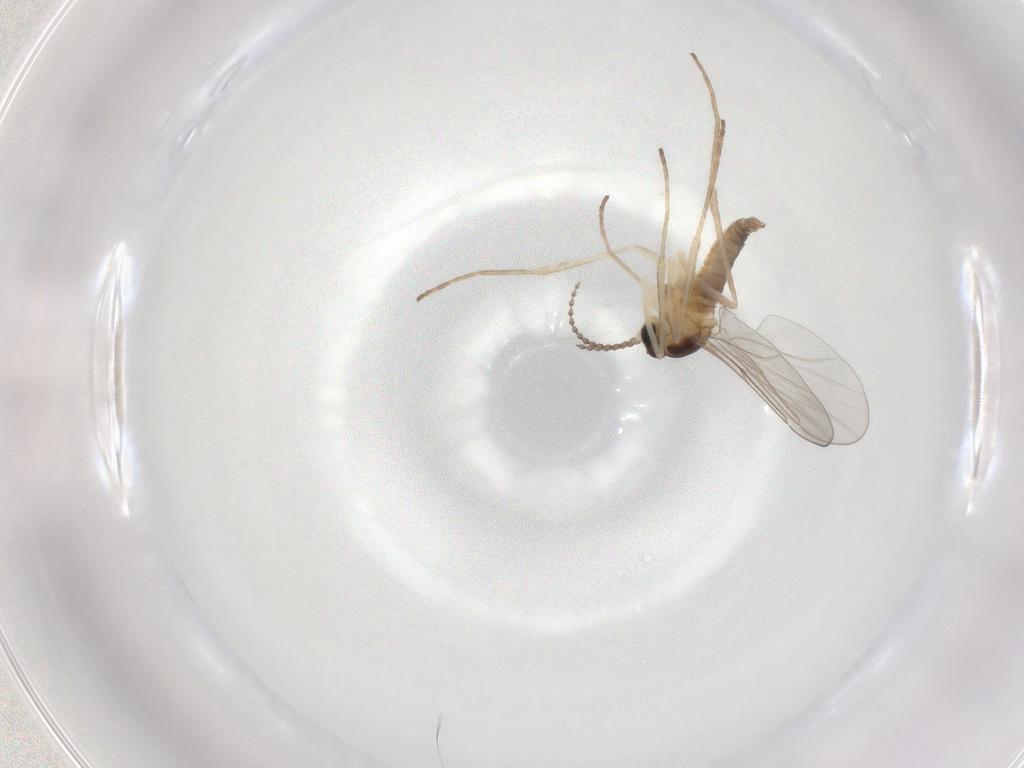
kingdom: Animalia
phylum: Arthropoda
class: Insecta
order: Diptera
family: Cecidomyiidae
